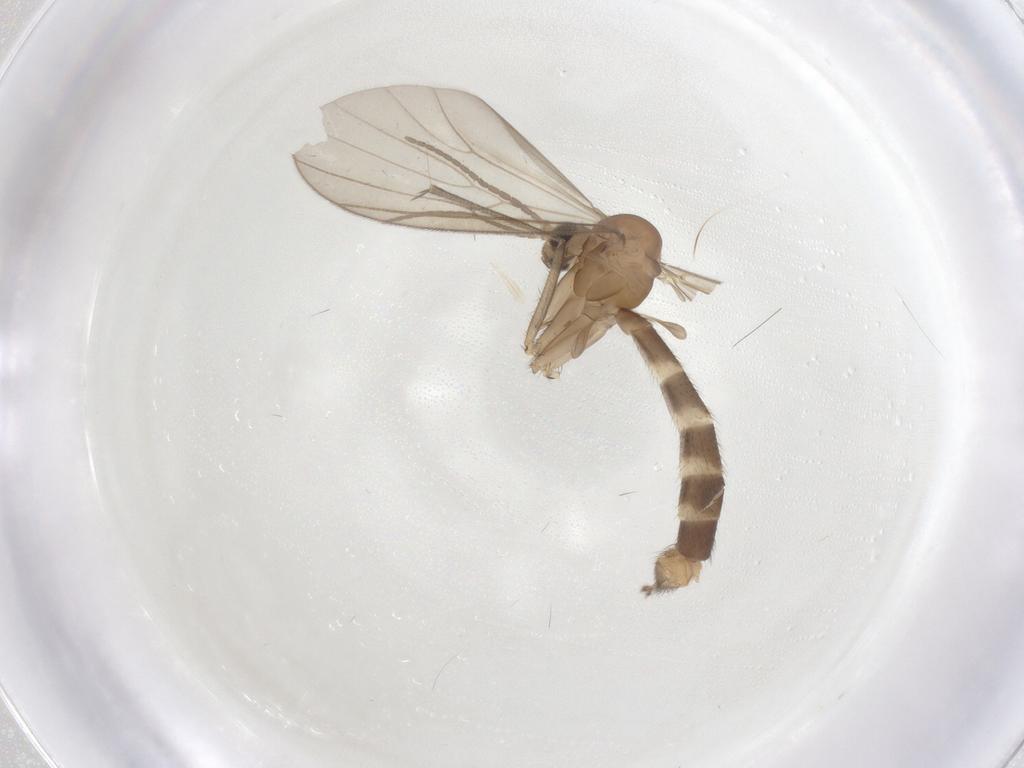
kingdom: Animalia
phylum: Arthropoda
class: Insecta
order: Diptera
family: Mycetophilidae
